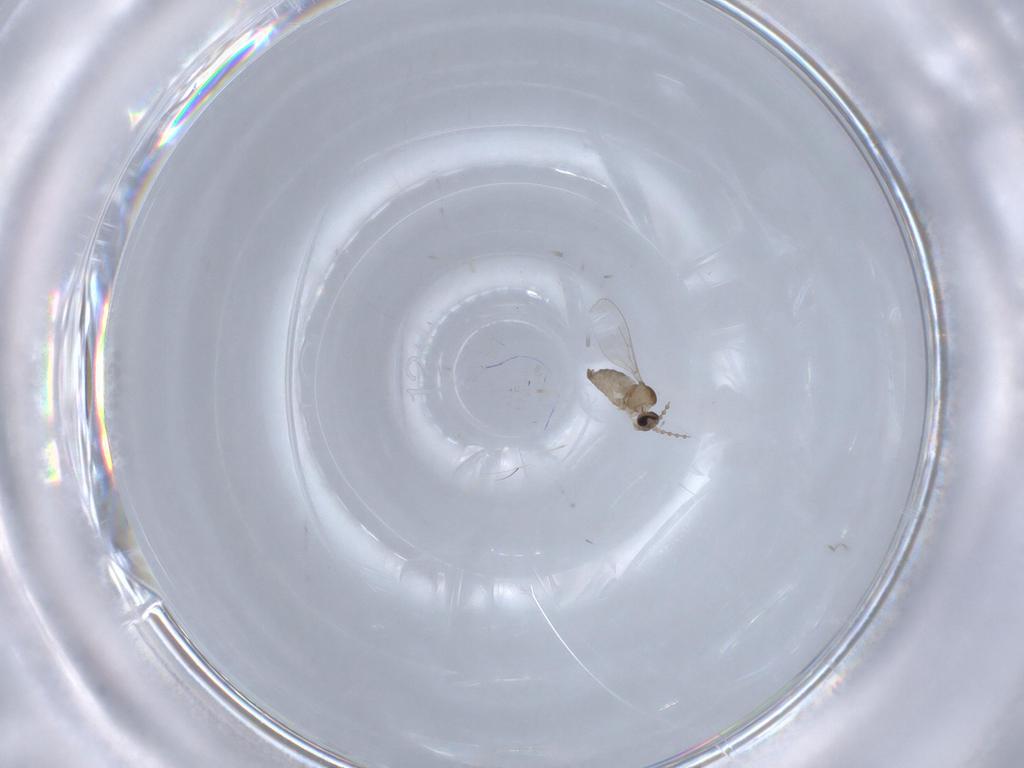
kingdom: Animalia
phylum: Arthropoda
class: Insecta
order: Diptera
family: Cecidomyiidae
